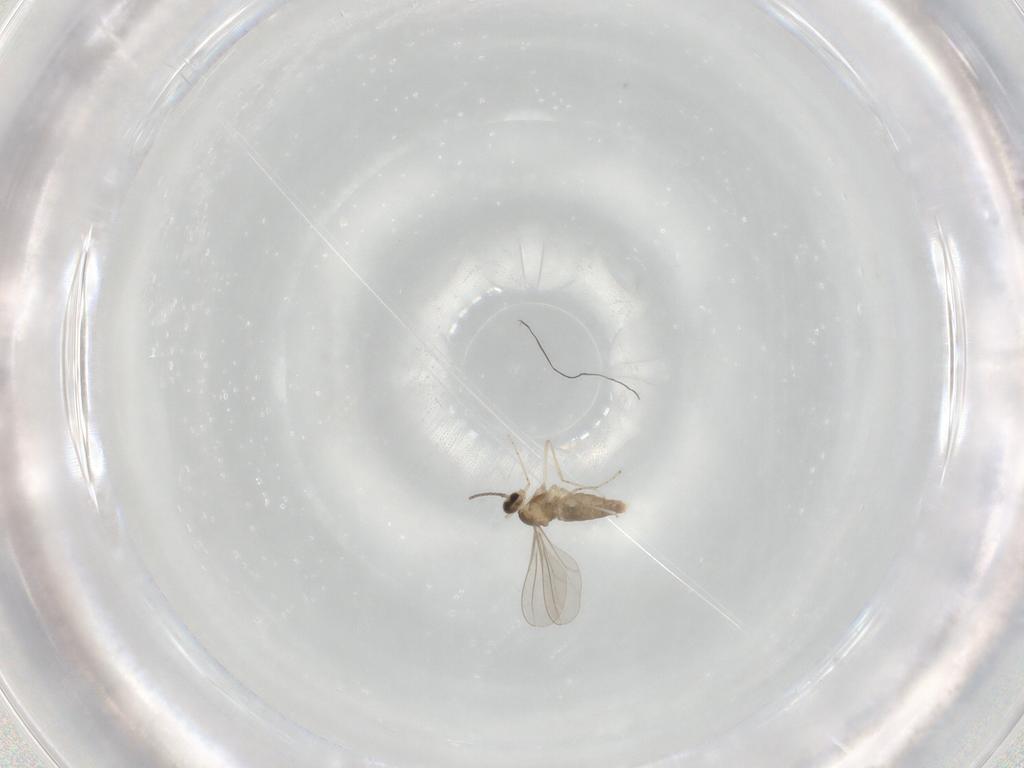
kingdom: Animalia
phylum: Arthropoda
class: Insecta
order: Diptera
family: Cecidomyiidae
